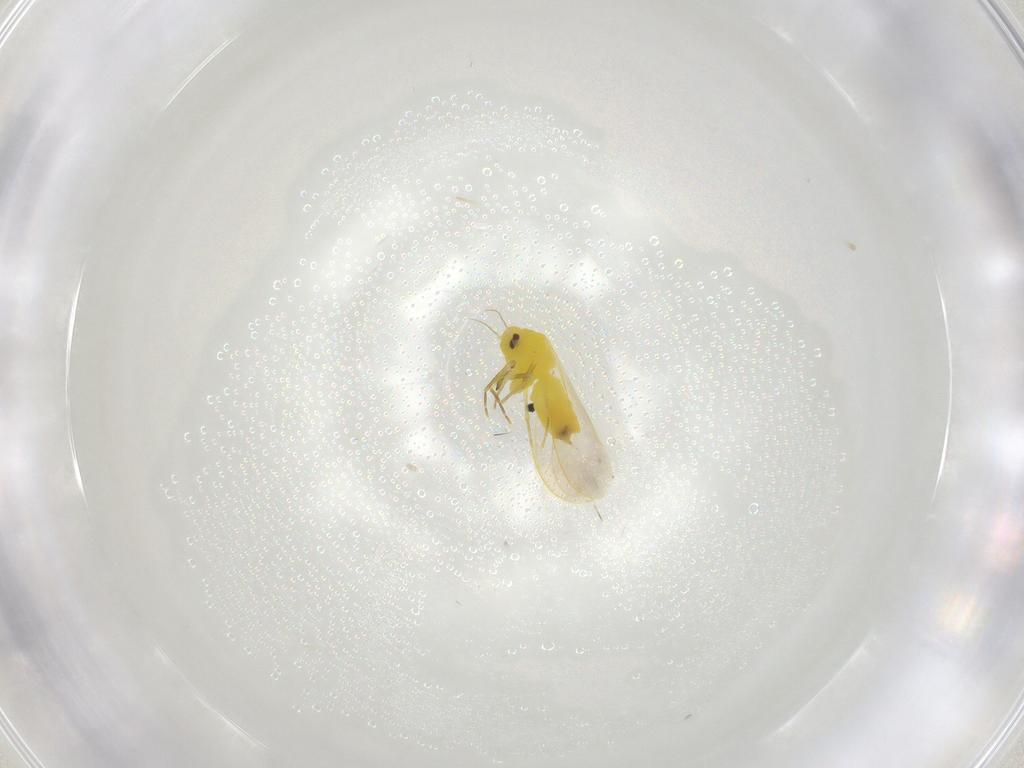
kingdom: Animalia
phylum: Arthropoda
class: Insecta
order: Hemiptera
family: Aleyrodidae
